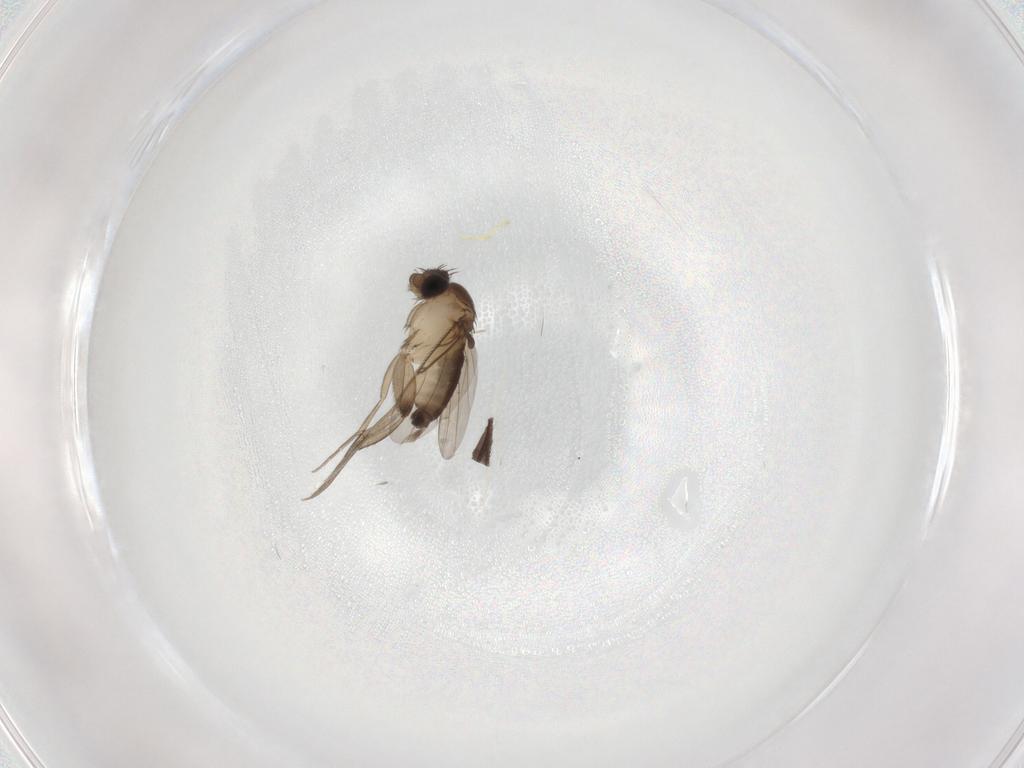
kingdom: Animalia
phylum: Arthropoda
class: Insecta
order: Diptera
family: Phoridae
